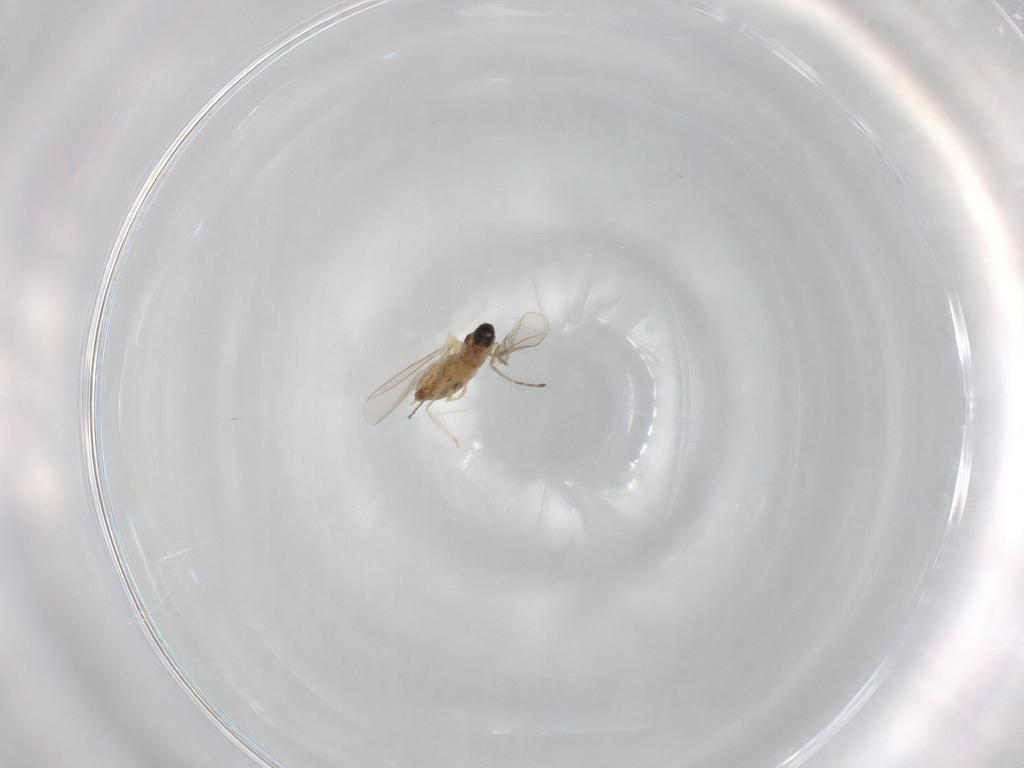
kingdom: Animalia
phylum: Arthropoda
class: Insecta
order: Diptera
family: Cecidomyiidae
